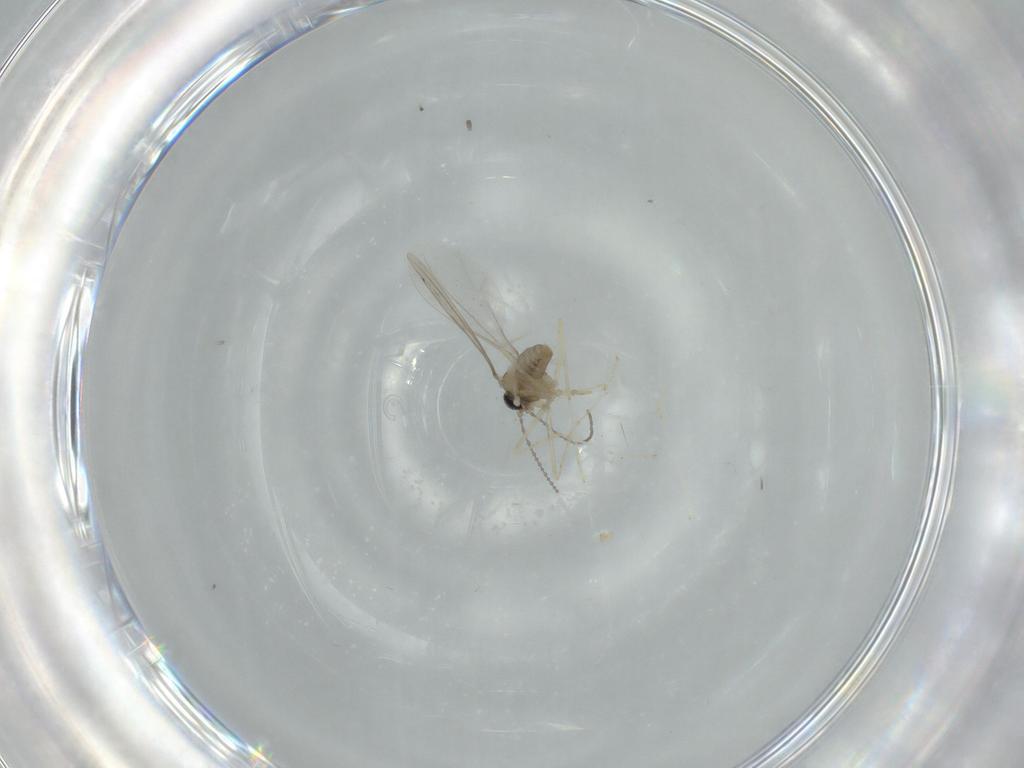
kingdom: Animalia
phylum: Arthropoda
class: Insecta
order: Diptera
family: Cecidomyiidae
